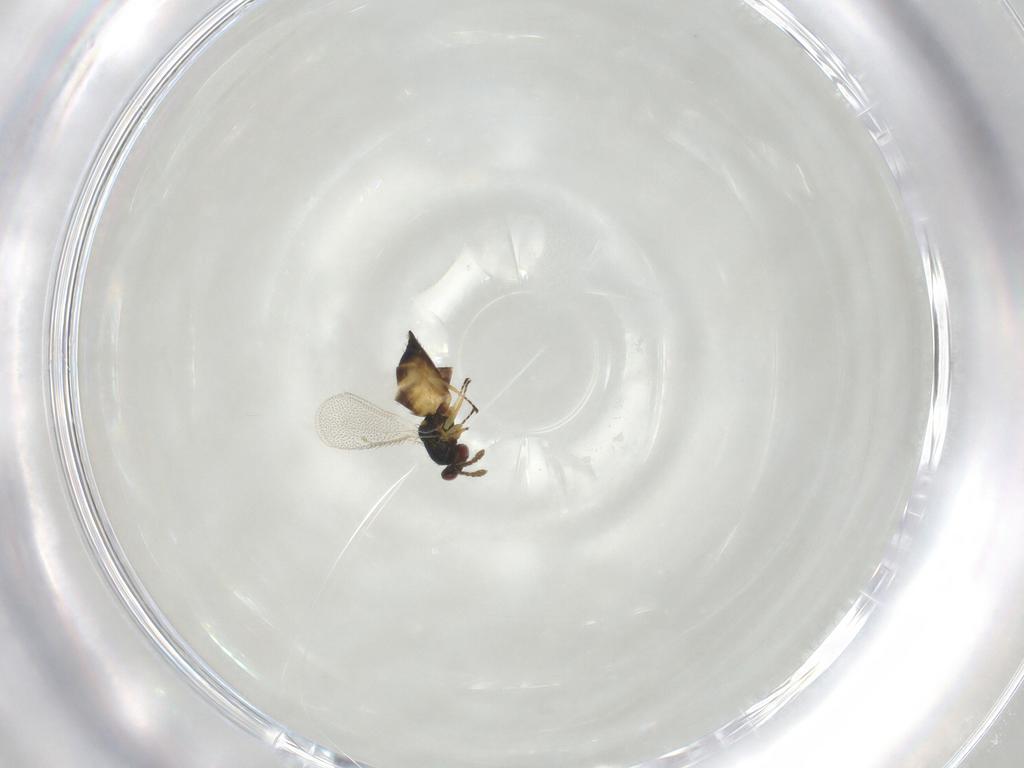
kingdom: Animalia
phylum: Arthropoda
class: Insecta
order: Hymenoptera
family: Eulophidae
